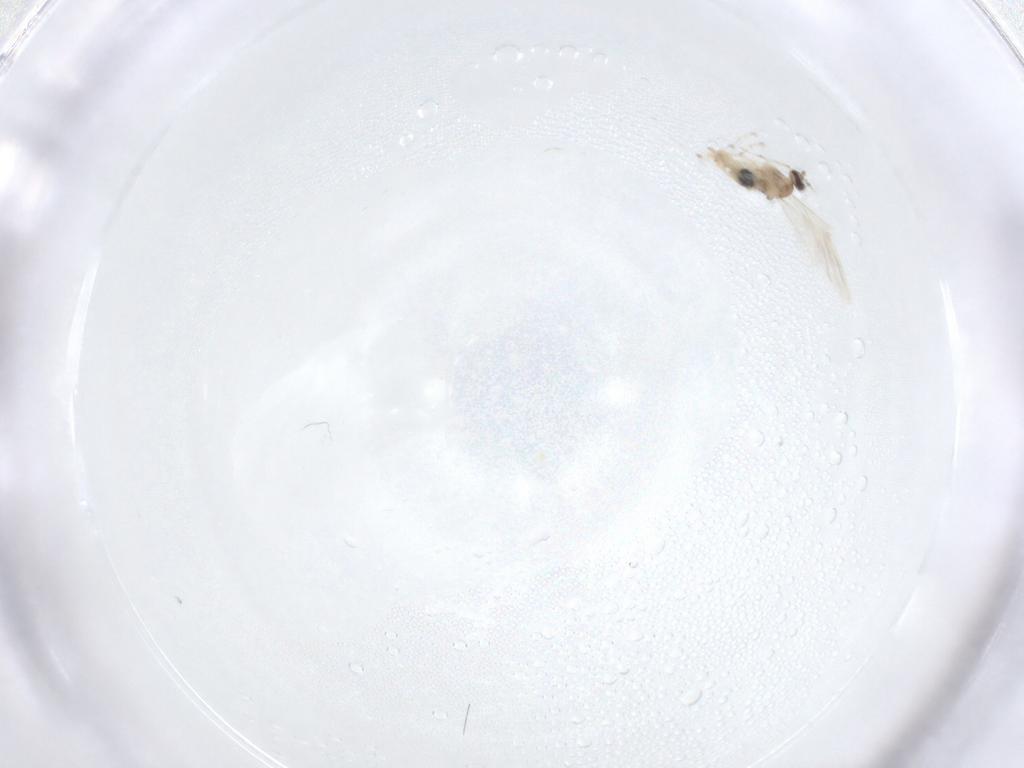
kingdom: Animalia
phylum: Arthropoda
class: Insecta
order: Diptera
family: Cecidomyiidae
